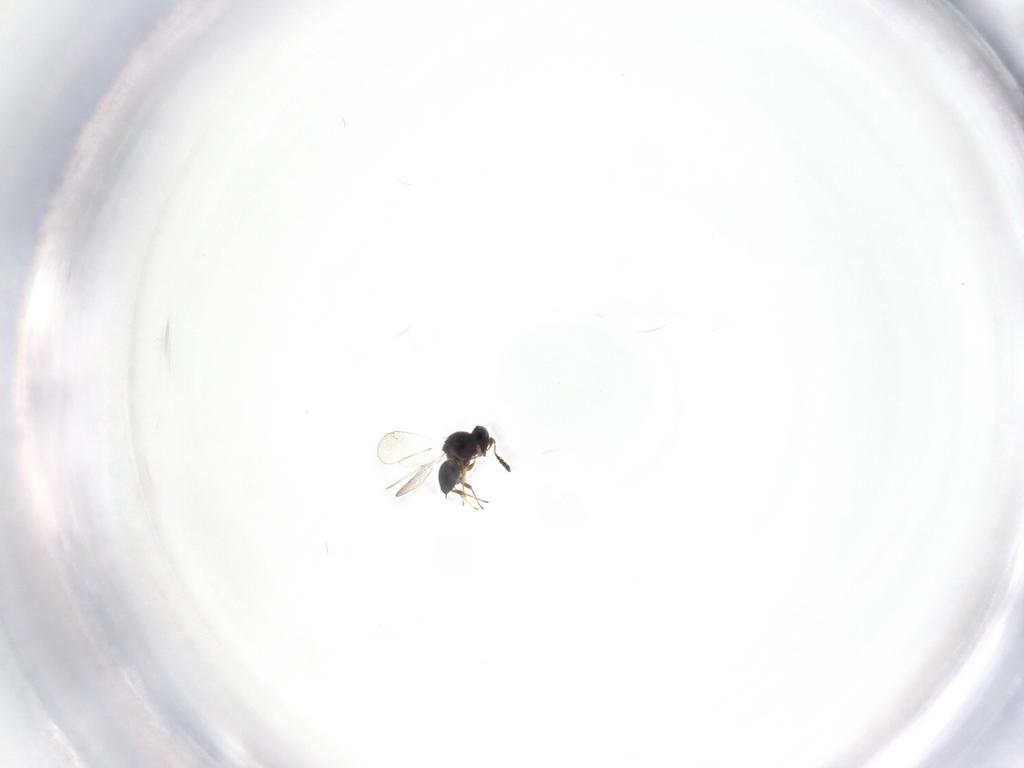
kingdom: Animalia
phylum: Arthropoda
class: Insecta
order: Hymenoptera
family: Platygastridae
